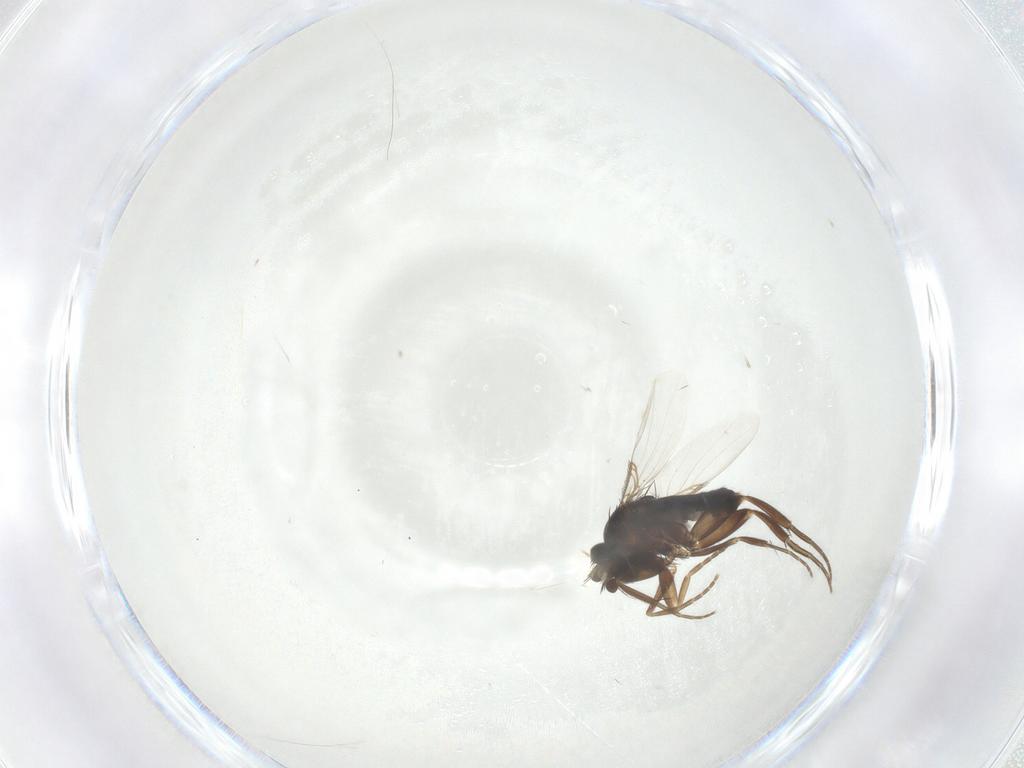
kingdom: Animalia
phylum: Arthropoda
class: Insecta
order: Diptera
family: Phoridae
